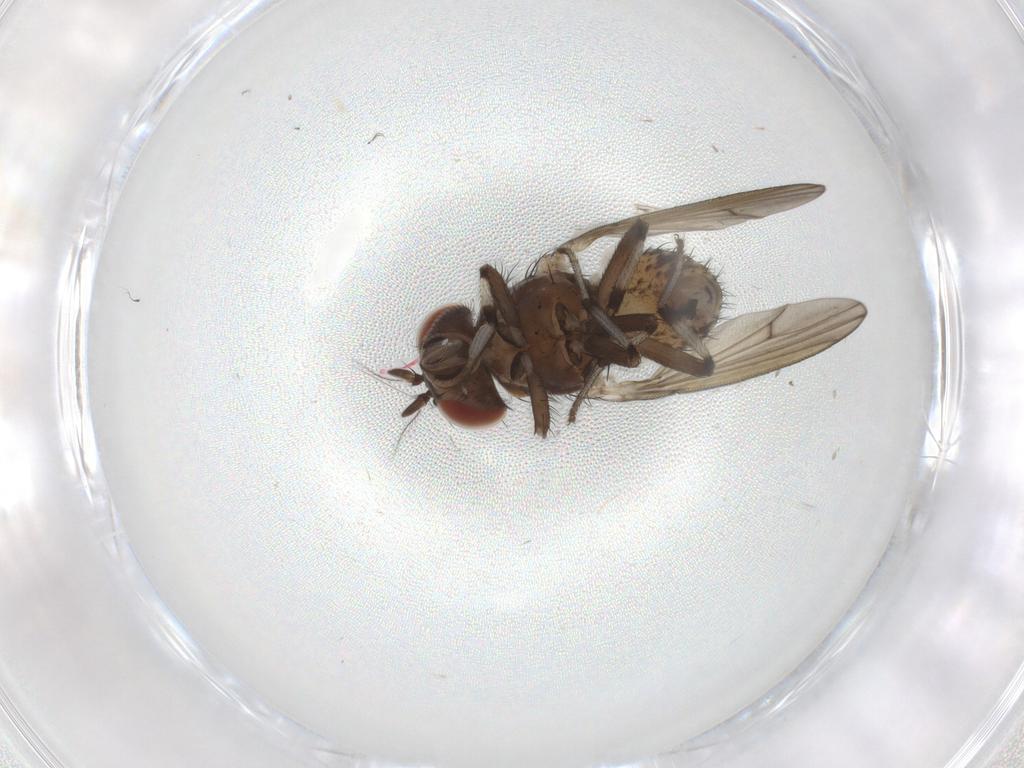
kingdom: Animalia
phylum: Arthropoda
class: Insecta
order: Diptera
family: Lauxaniidae
